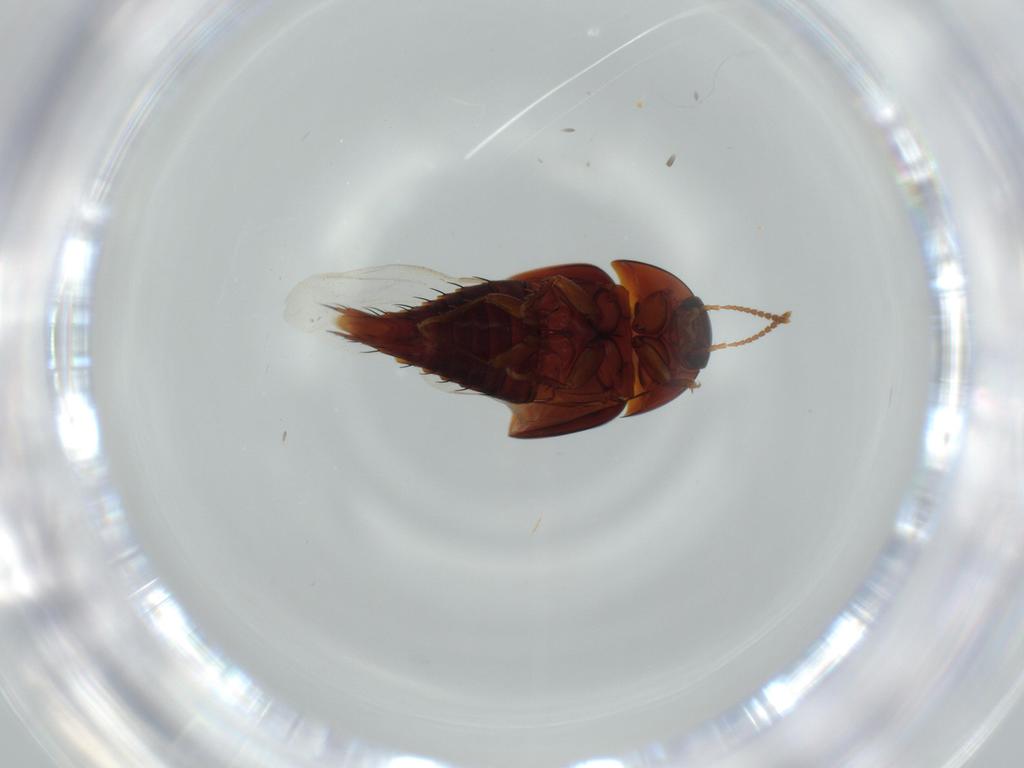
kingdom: Animalia
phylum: Arthropoda
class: Insecta
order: Coleoptera
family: Staphylinidae
